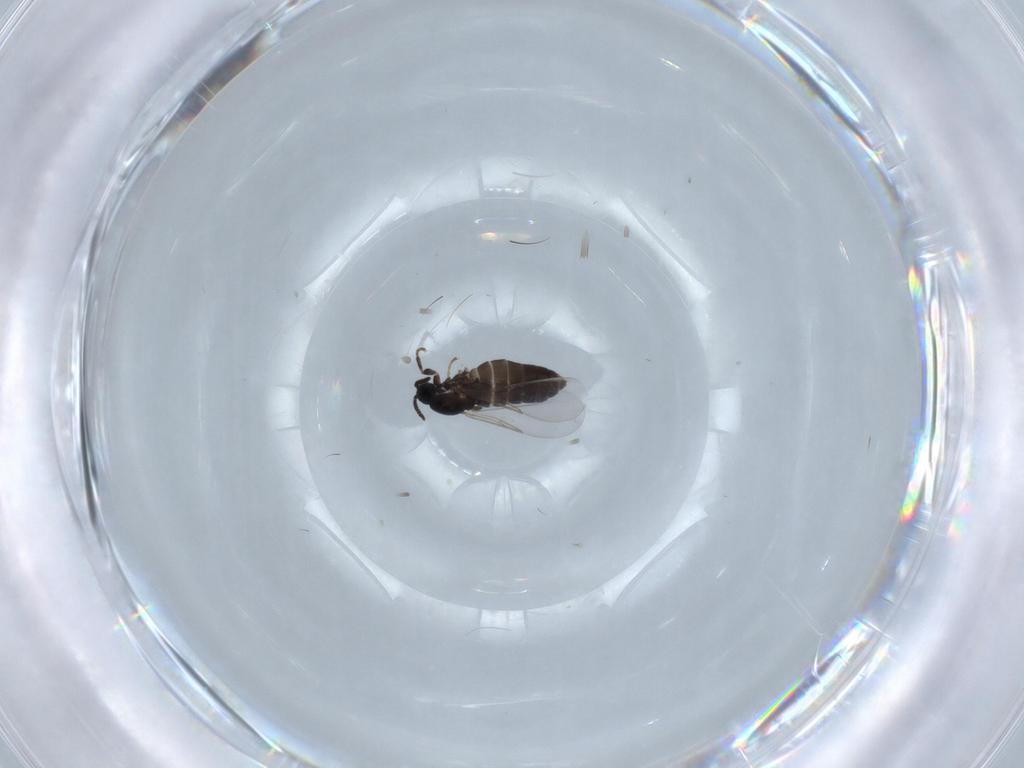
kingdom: Animalia
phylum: Arthropoda
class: Insecta
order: Diptera
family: Scatopsidae
